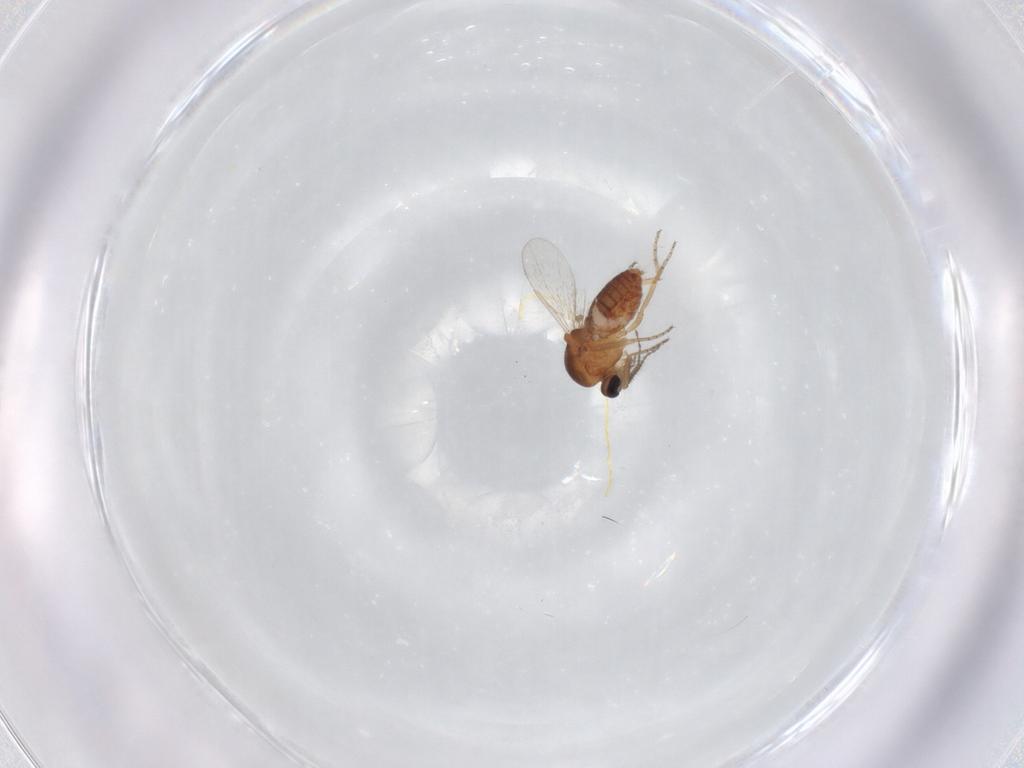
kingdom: Animalia
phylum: Arthropoda
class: Insecta
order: Diptera
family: Ceratopogonidae
